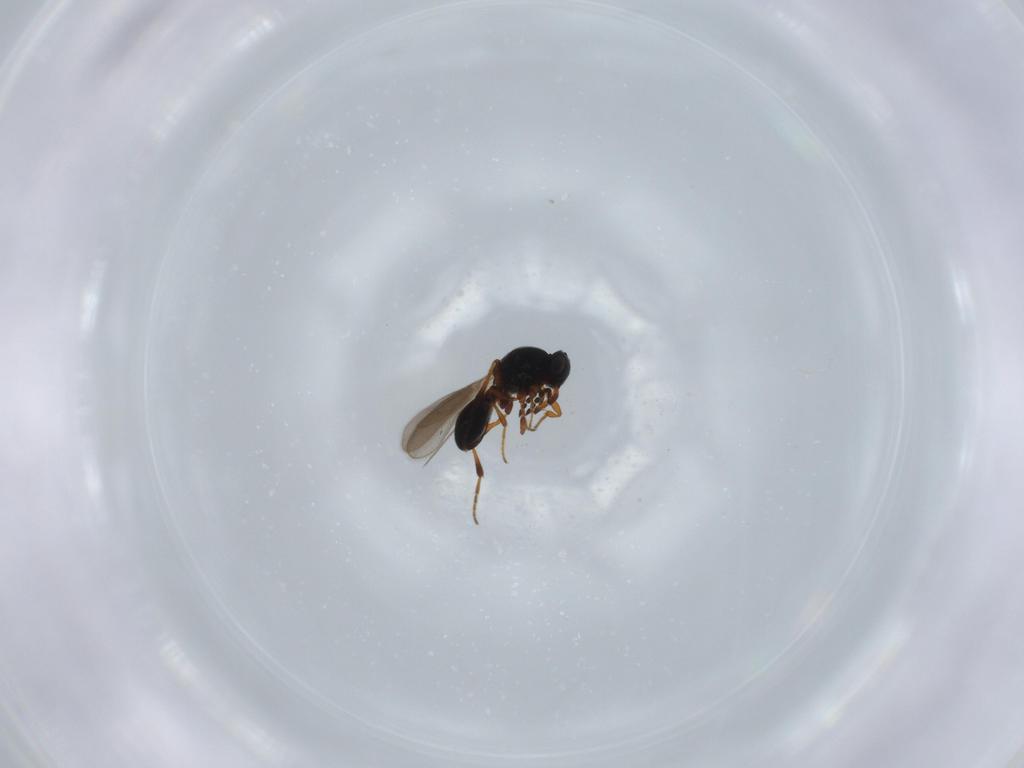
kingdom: Animalia
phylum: Arthropoda
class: Insecta
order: Hymenoptera
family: Platygastridae
